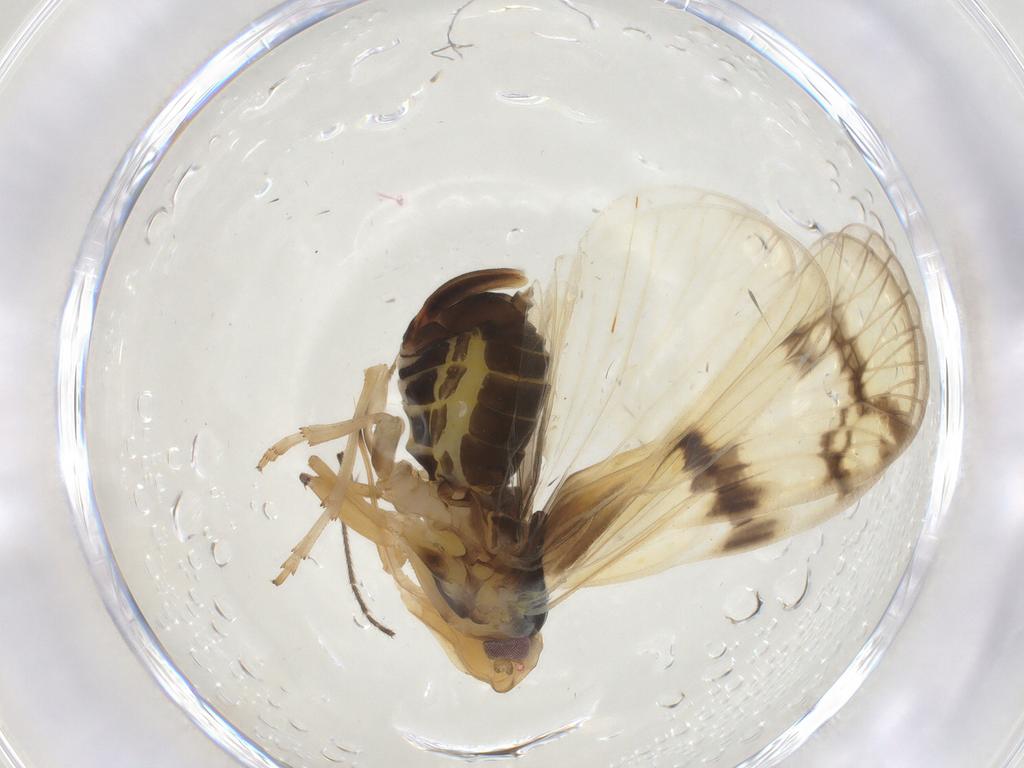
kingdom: Animalia
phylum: Arthropoda
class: Insecta
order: Hemiptera
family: Cixiidae
